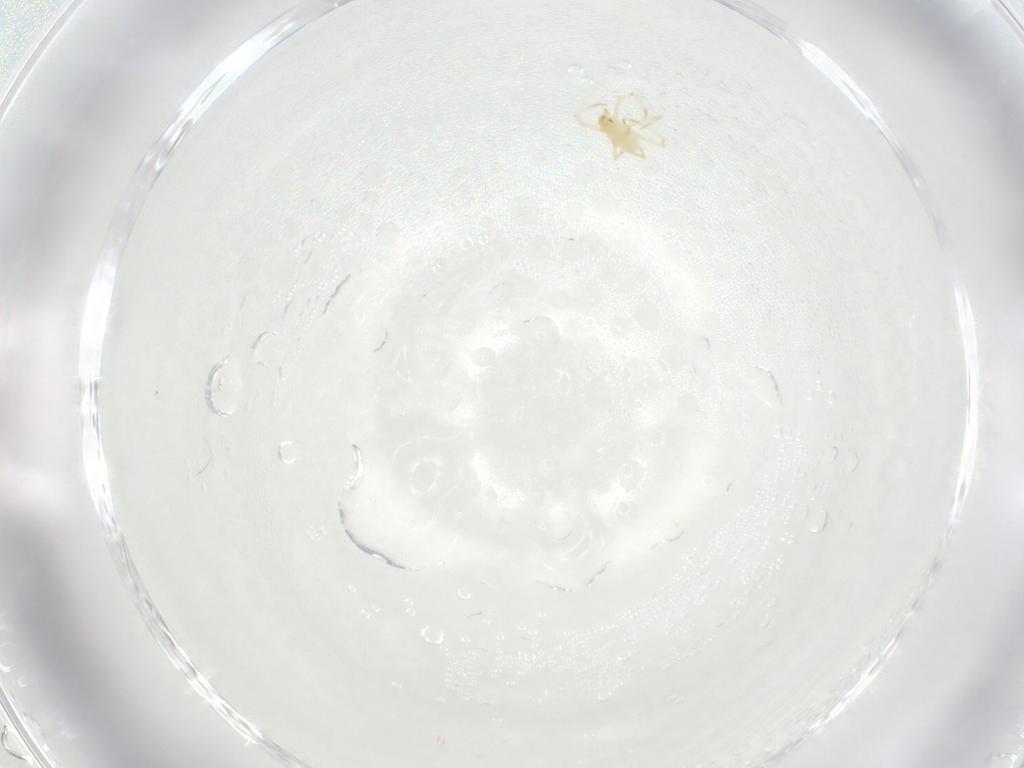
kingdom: Animalia
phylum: Arthropoda
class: Arachnida
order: Trombidiformes
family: Erythraeidae
